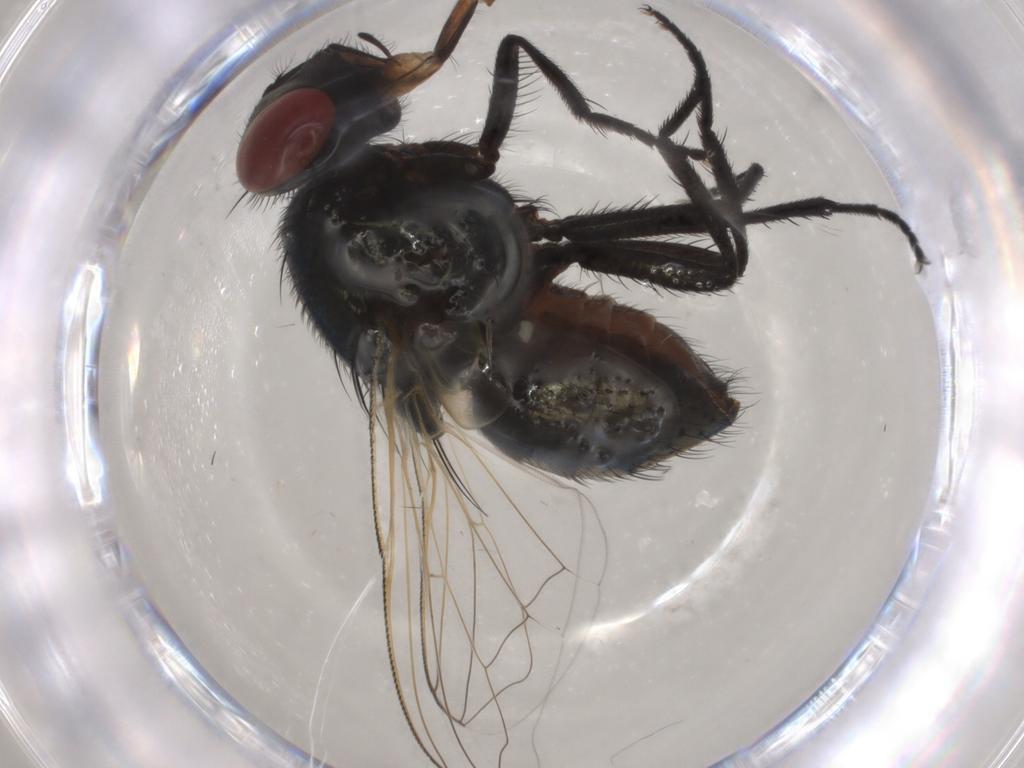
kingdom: Animalia
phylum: Arthropoda
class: Insecta
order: Diptera
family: Muscidae
